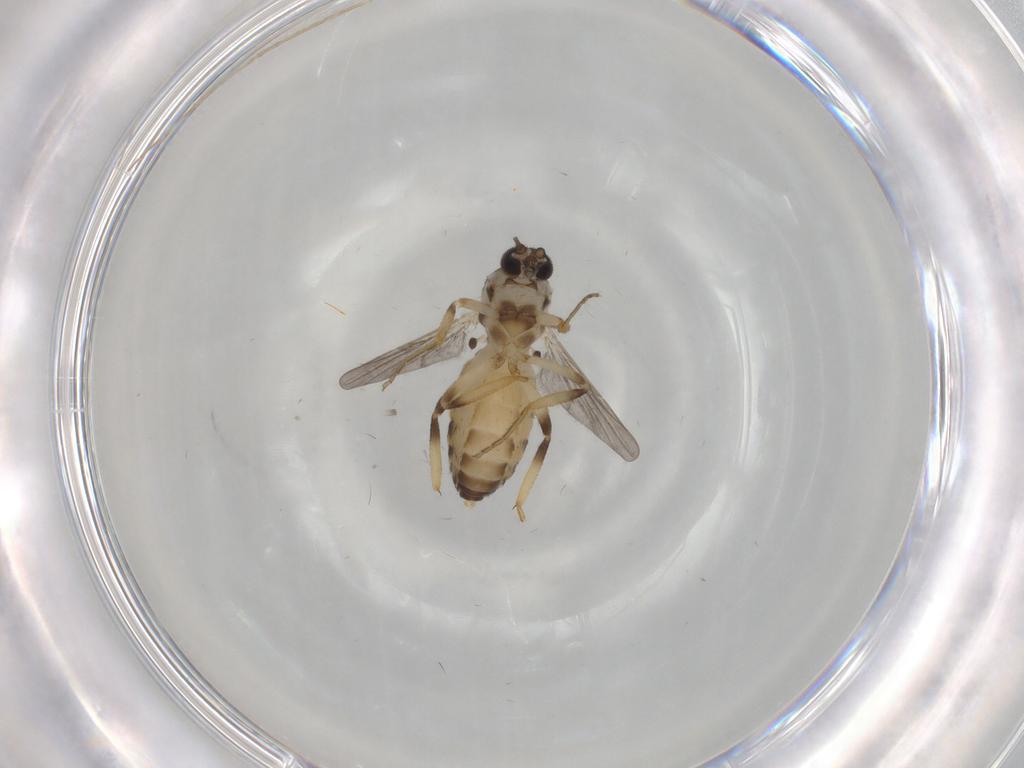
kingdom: Animalia
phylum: Arthropoda
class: Insecta
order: Diptera
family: Ceratopogonidae
